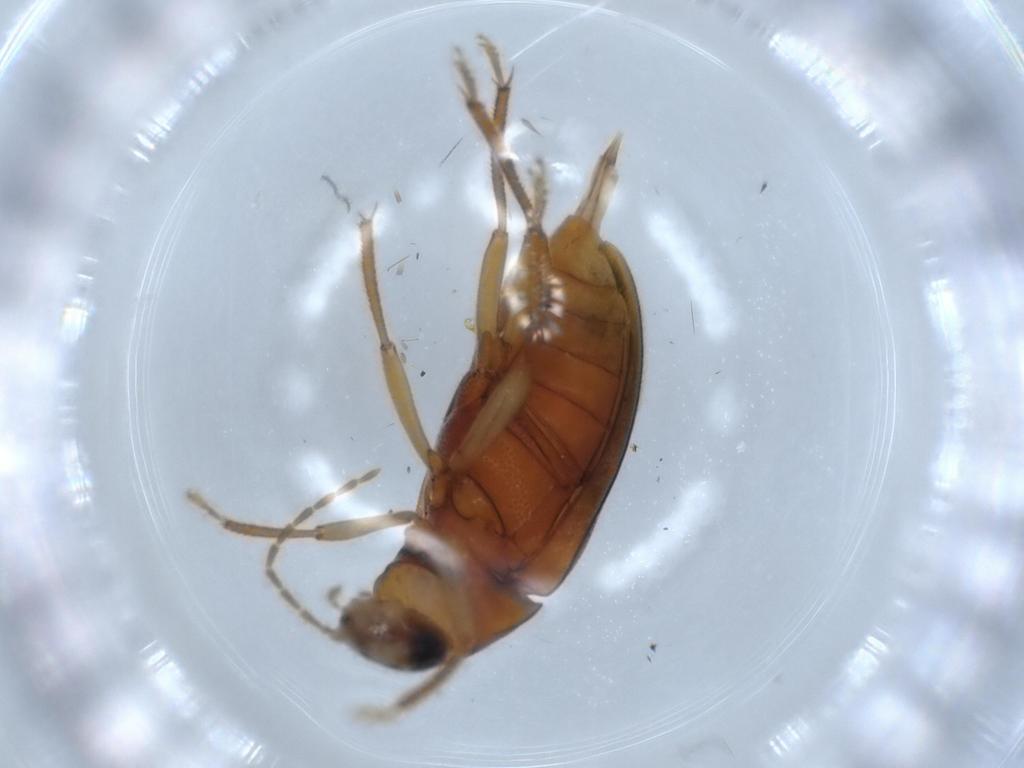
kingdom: Animalia
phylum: Arthropoda
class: Insecta
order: Coleoptera
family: Ptilodactylidae
